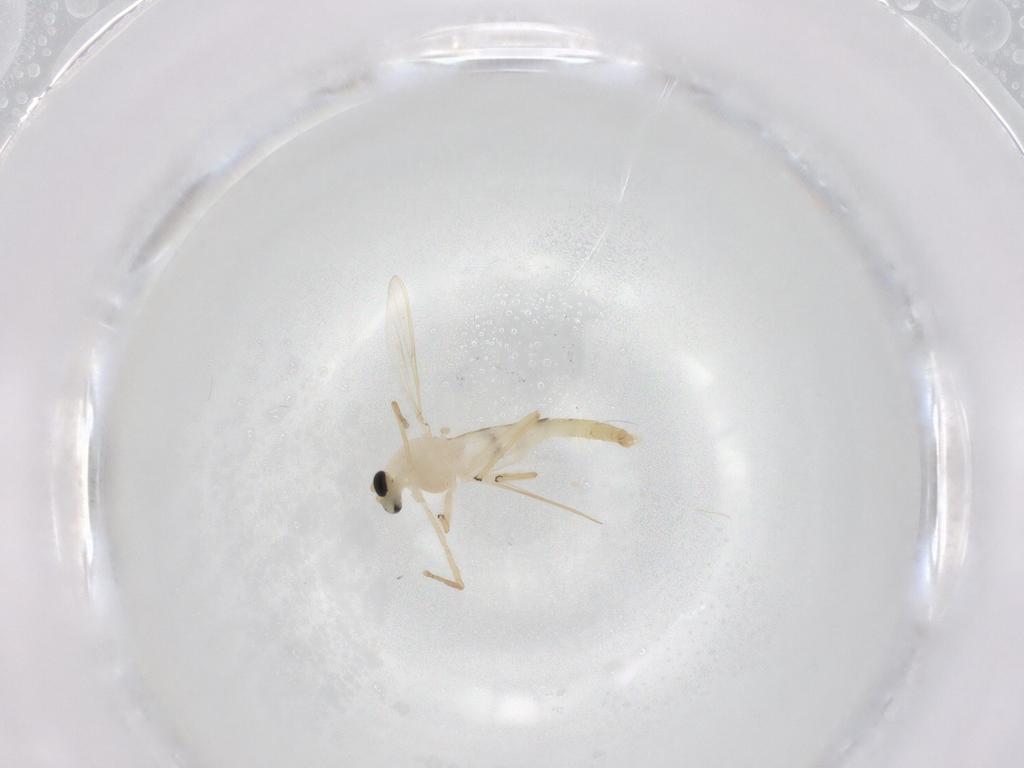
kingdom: Animalia
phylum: Arthropoda
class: Insecta
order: Diptera
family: Chironomidae
